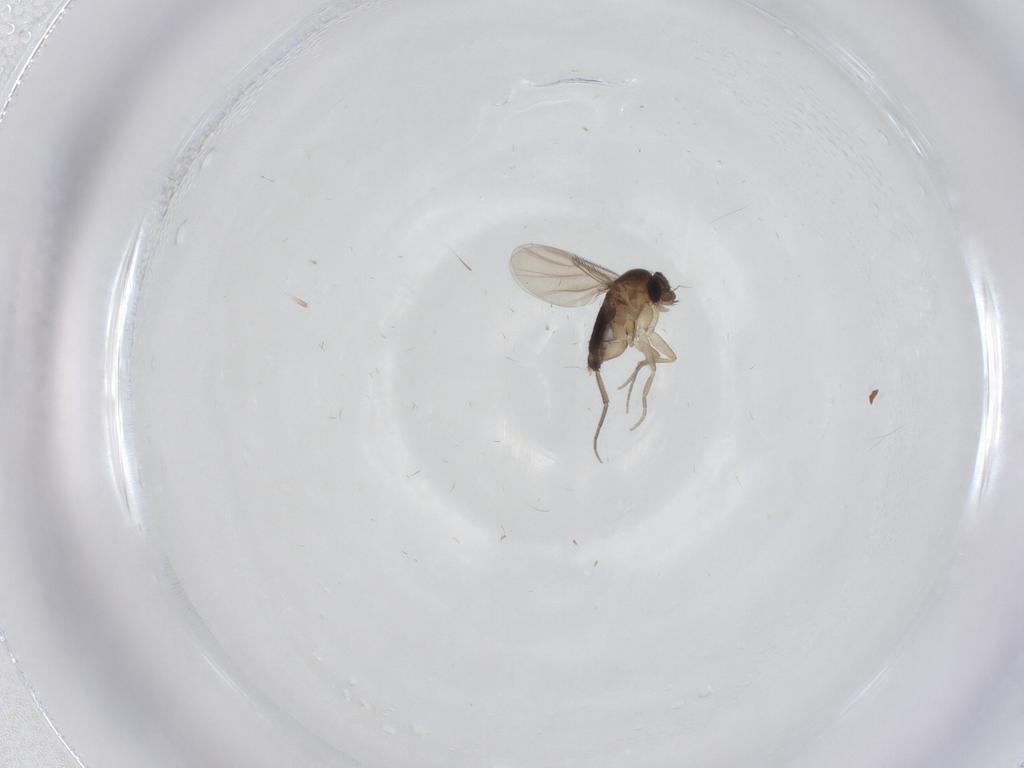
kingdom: Animalia
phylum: Arthropoda
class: Insecta
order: Diptera
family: Phoridae
